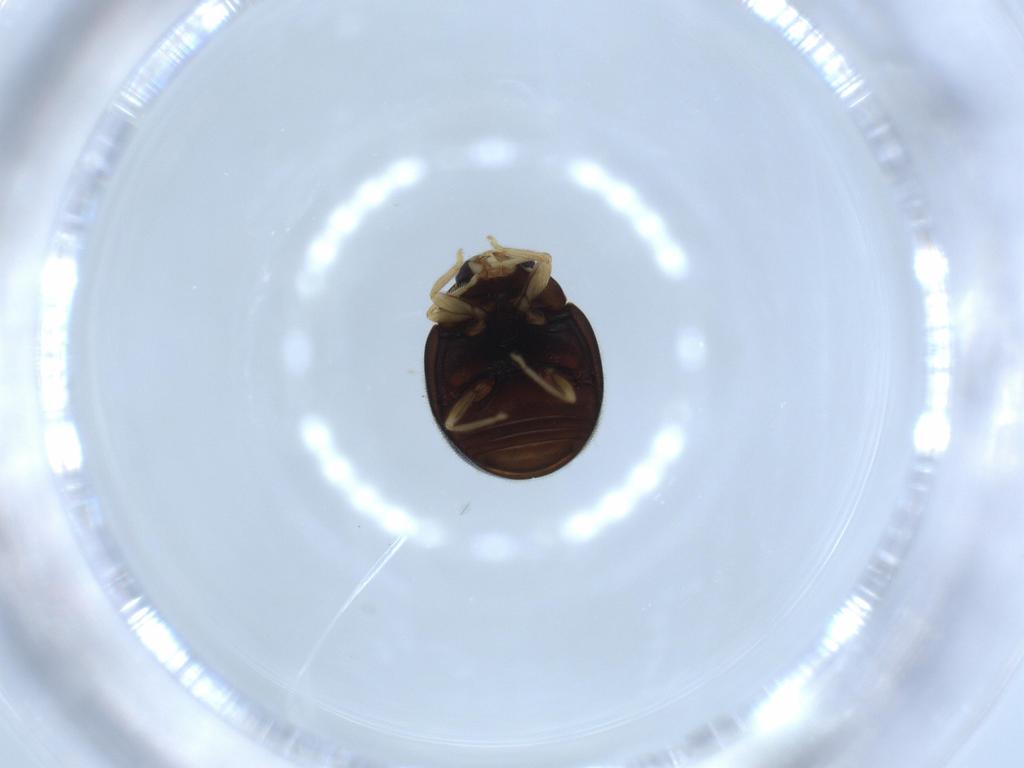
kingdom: Animalia
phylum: Arthropoda
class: Insecta
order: Coleoptera
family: Coccinellidae
